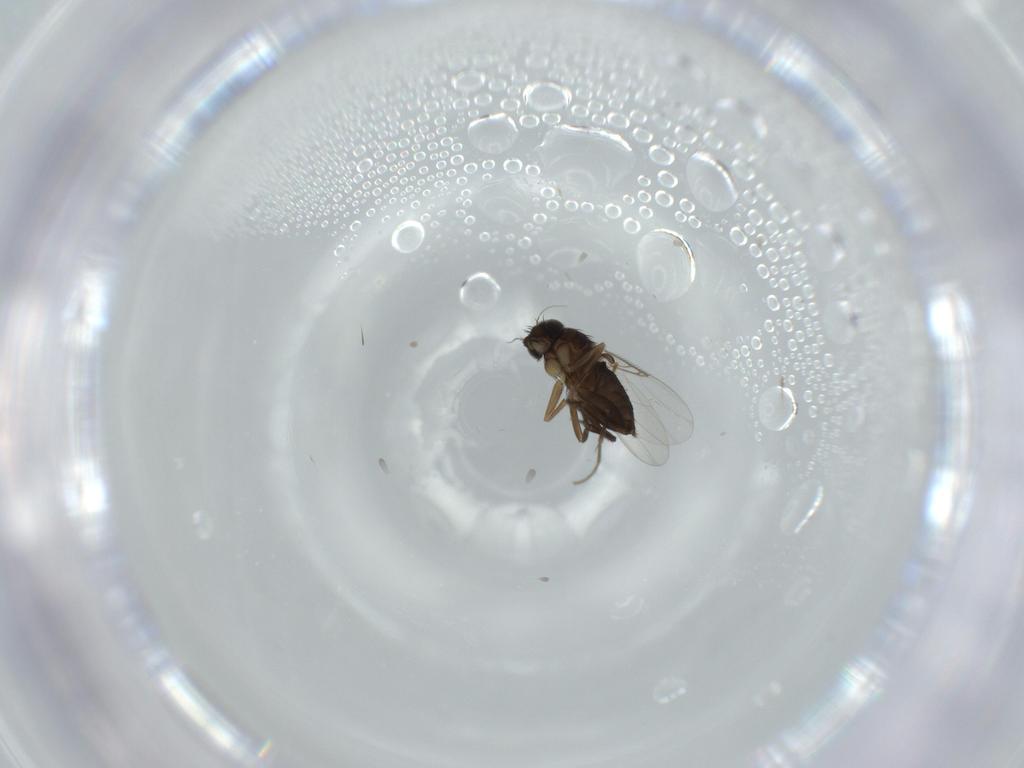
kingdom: Animalia
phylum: Arthropoda
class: Insecta
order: Diptera
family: Phoridae
